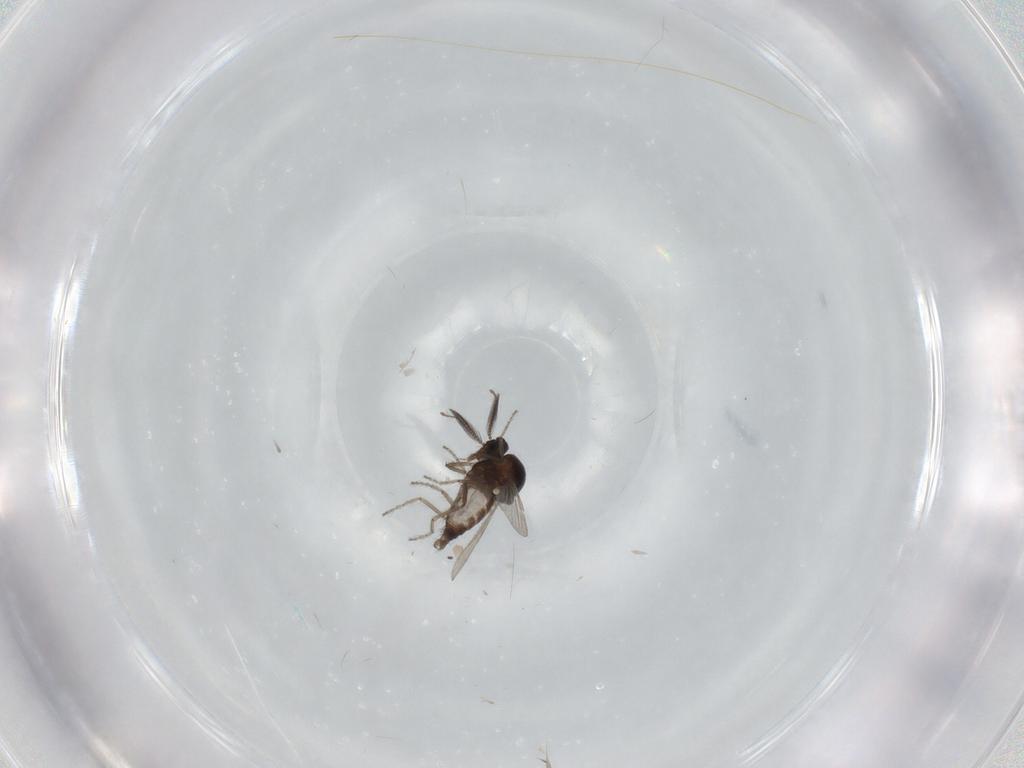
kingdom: Animalia
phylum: Arthropoda
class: Insecta
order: Diptera
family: Ceratopogonidae
